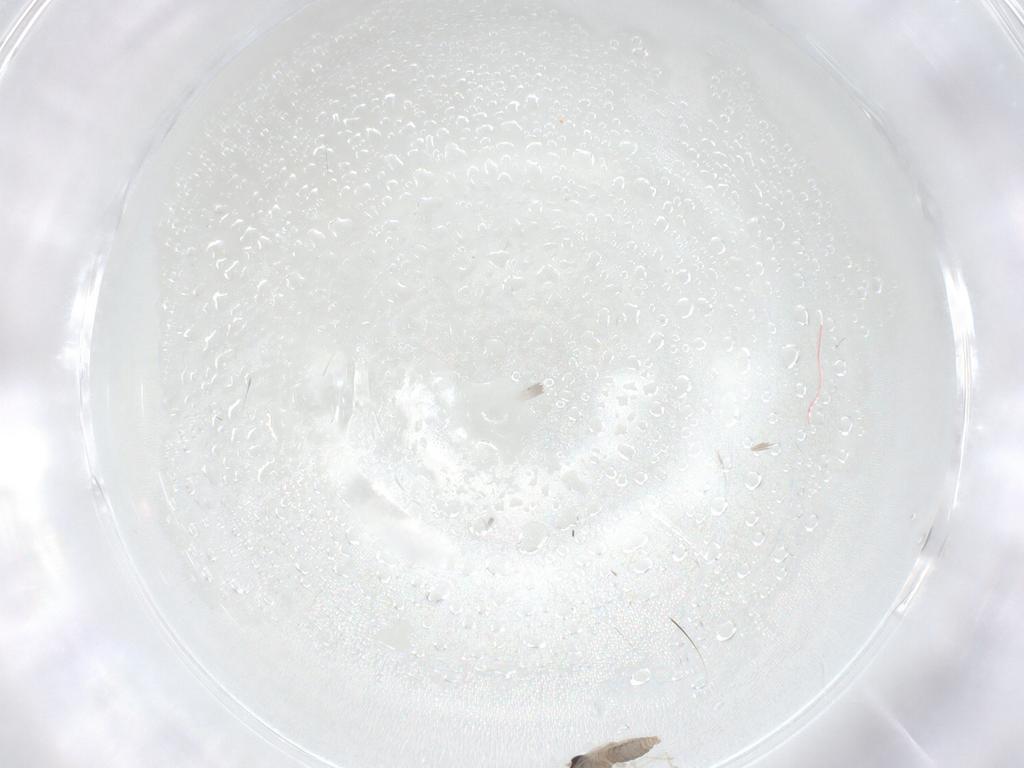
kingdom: Animalia
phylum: Arthropoda
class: Insecta
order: Diptera
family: Cecidomyiidae
